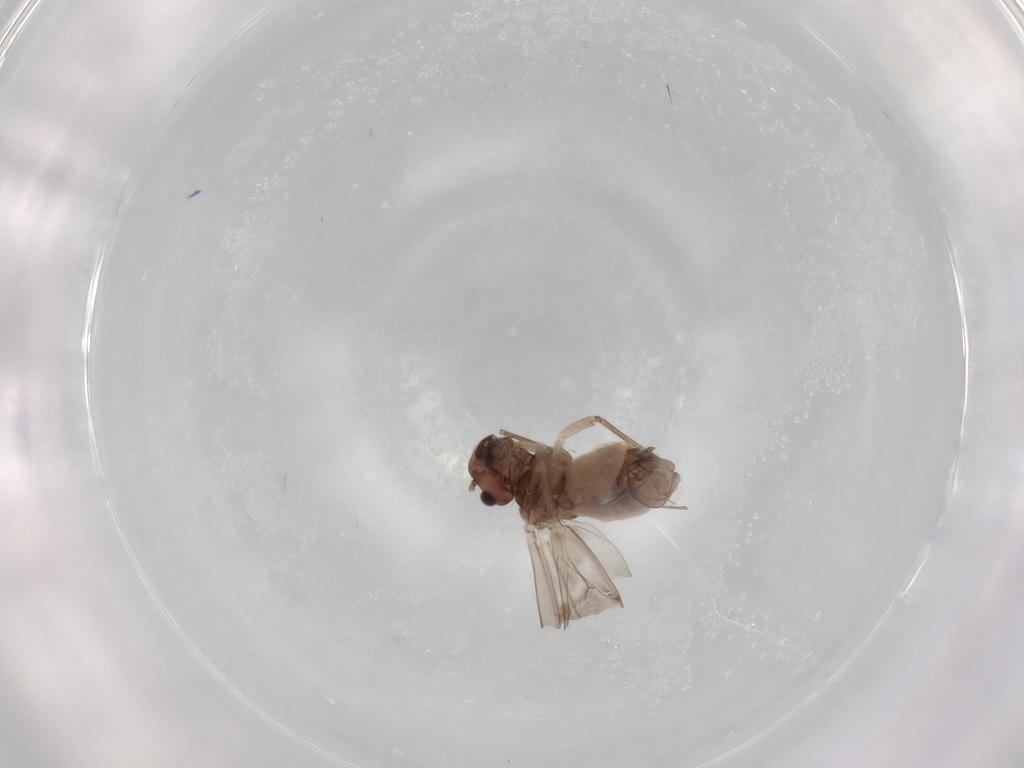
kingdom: Animalia
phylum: Arthropoda
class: Insecta
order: Psocodea
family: Peripsocidae
